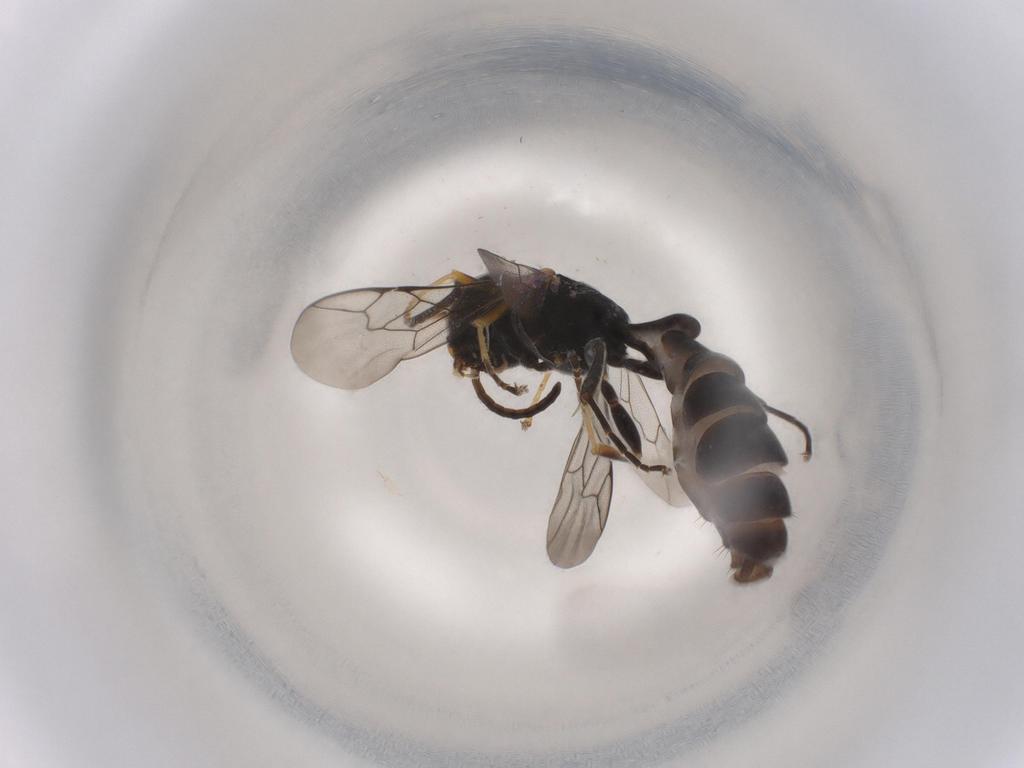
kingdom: Animalia
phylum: Arthropoda
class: Insecta
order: Hymenoptera
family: Crabronidae
